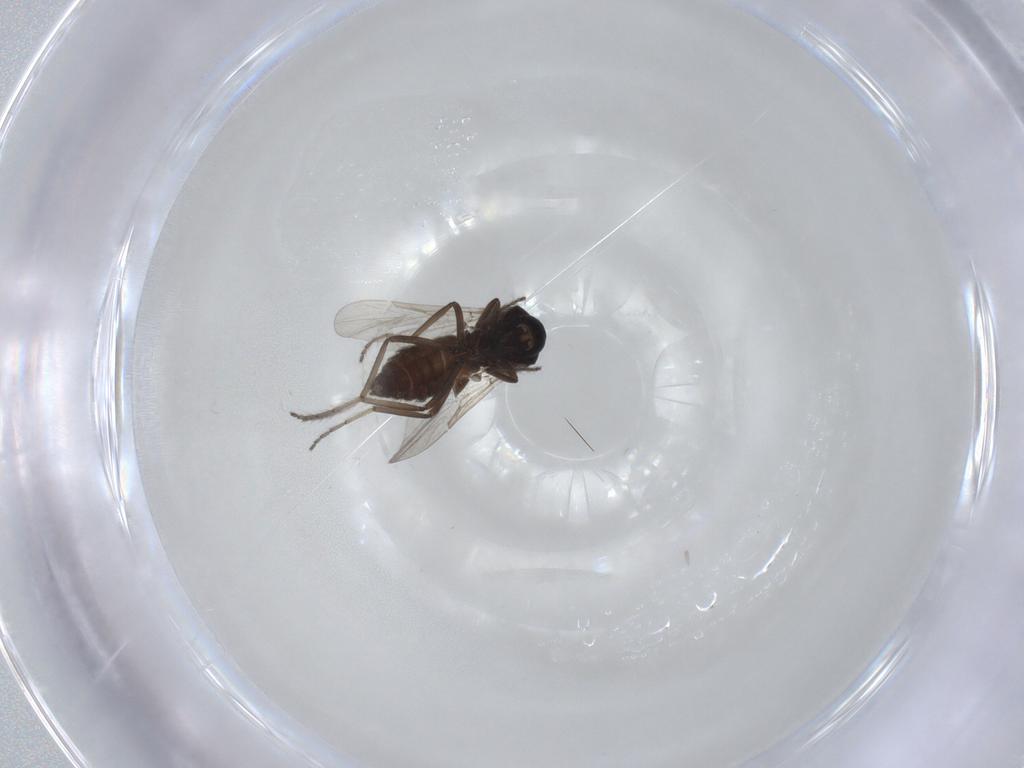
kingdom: Animalia
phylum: Arthropoda
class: Insecta
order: Diptera
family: Ceratopogonidae
